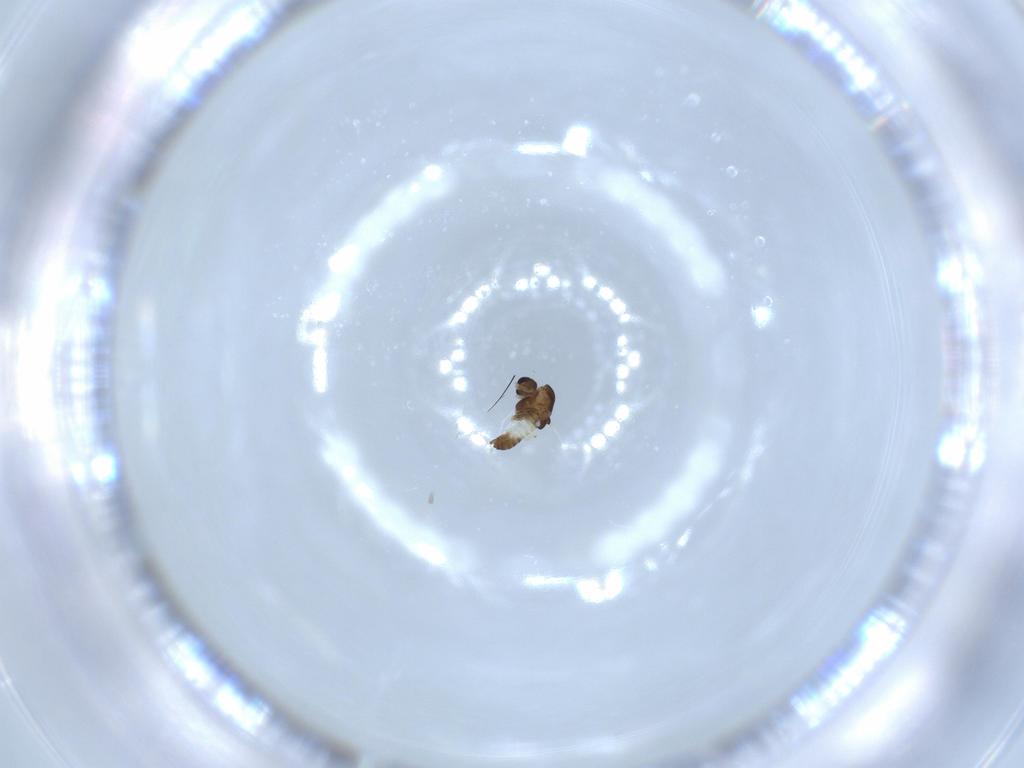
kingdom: Animalia
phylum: Arthropoda
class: Insecta
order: Diptera
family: Chironomidae
